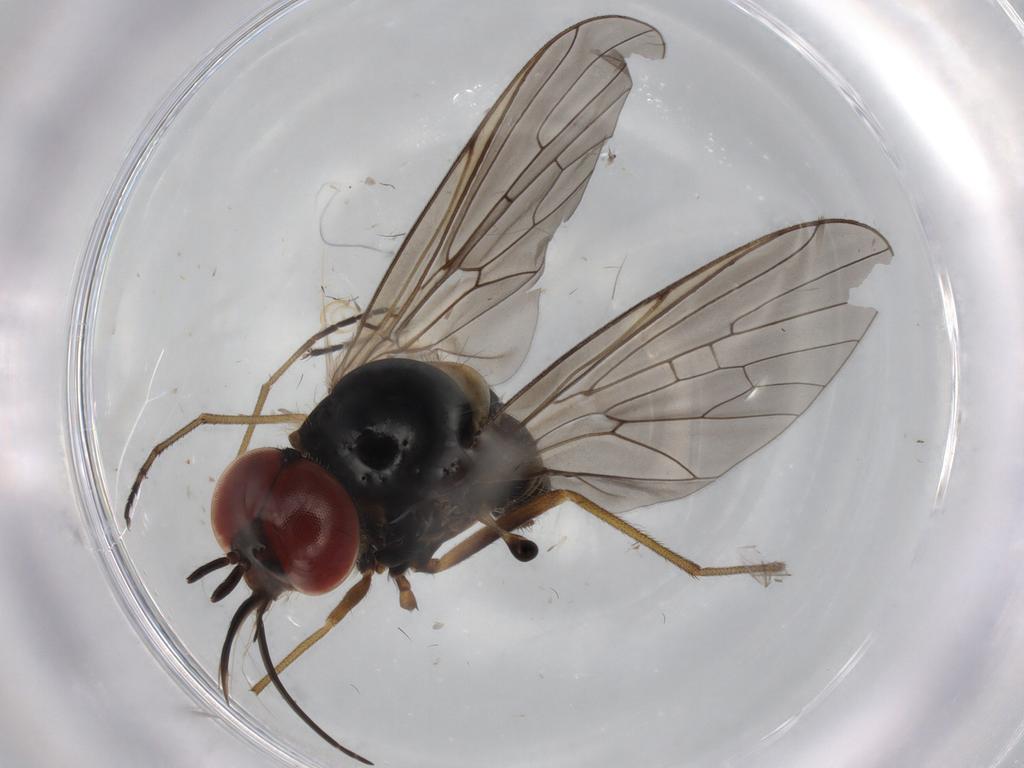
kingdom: Animalia
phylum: Arthropoda
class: Insecta
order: Diptera
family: Bombyliidae
